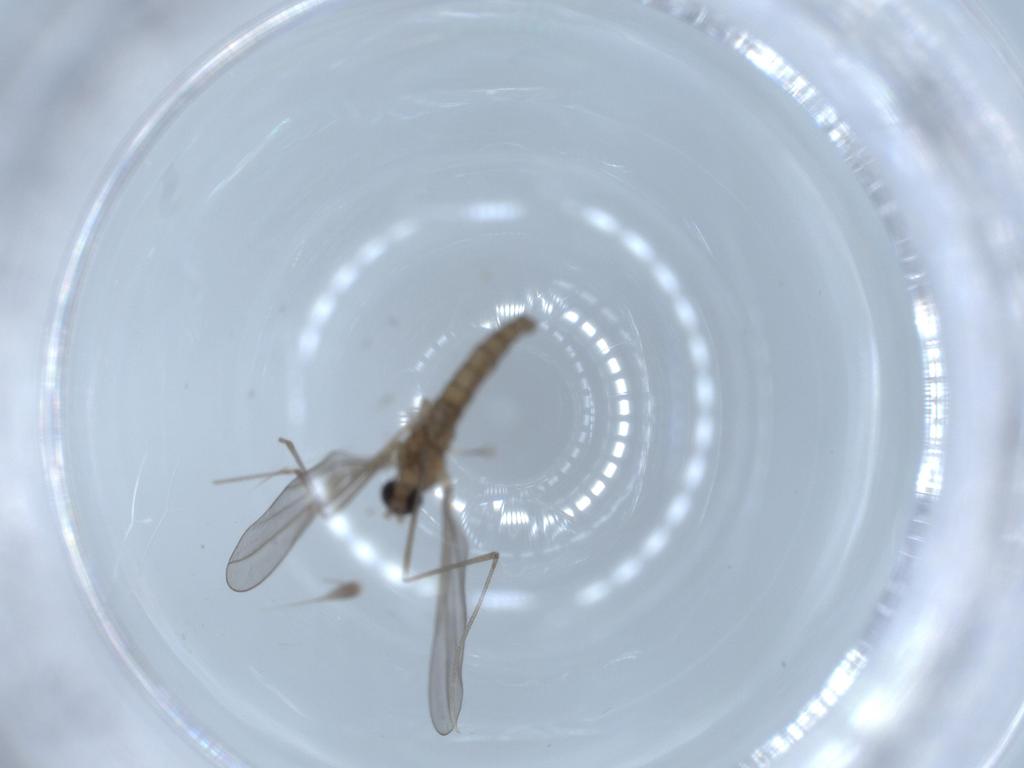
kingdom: Animalia
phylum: Arthropoda
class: Insecta
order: Diptera
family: Cecidomyiidae
